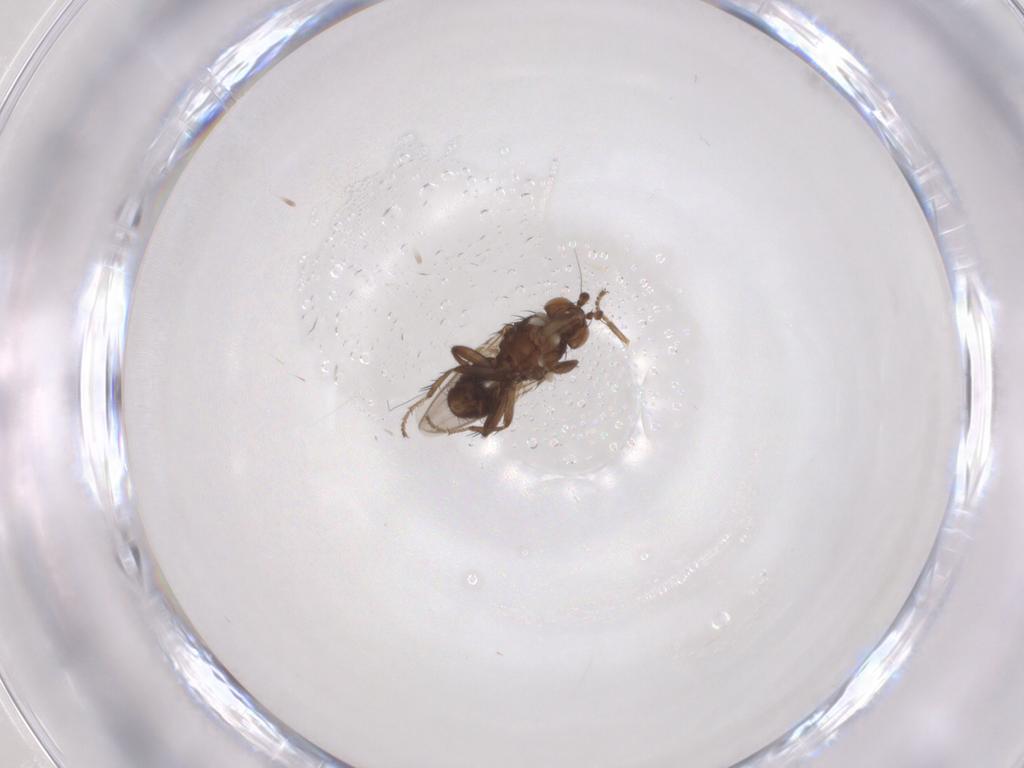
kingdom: Animalia
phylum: Arthropoda
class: Insecta
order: Diptera
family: Sphaeroceridae
